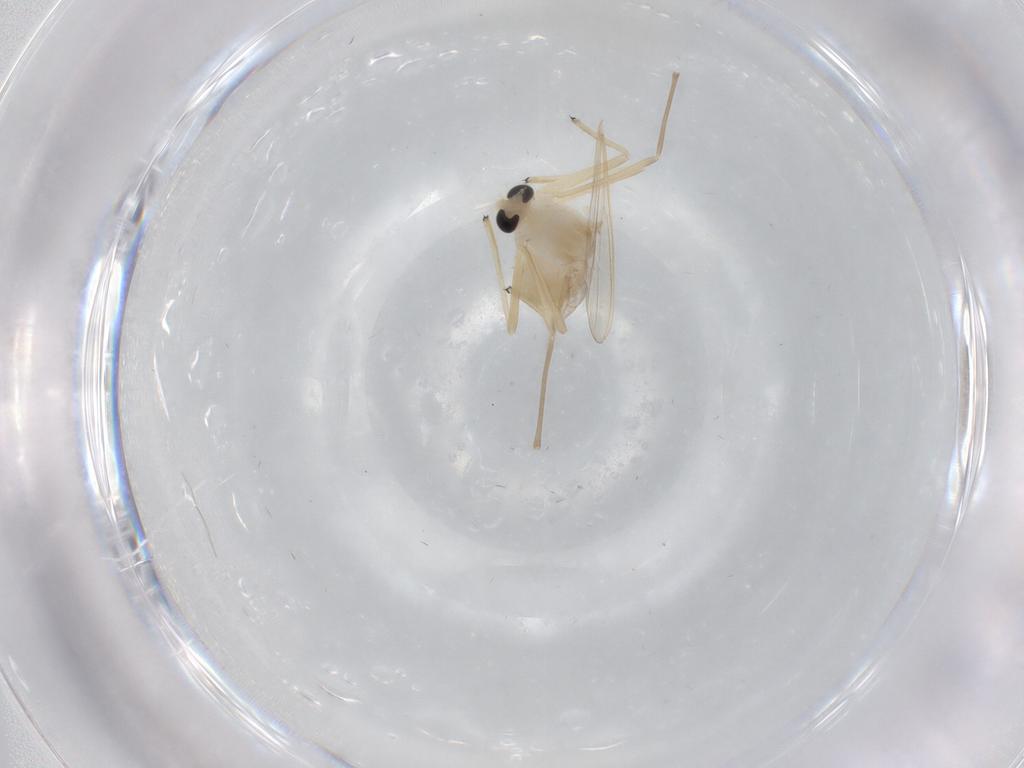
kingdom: Animalia
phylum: Arthropoda
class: Insecta
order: Diptera
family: Chironomidae
